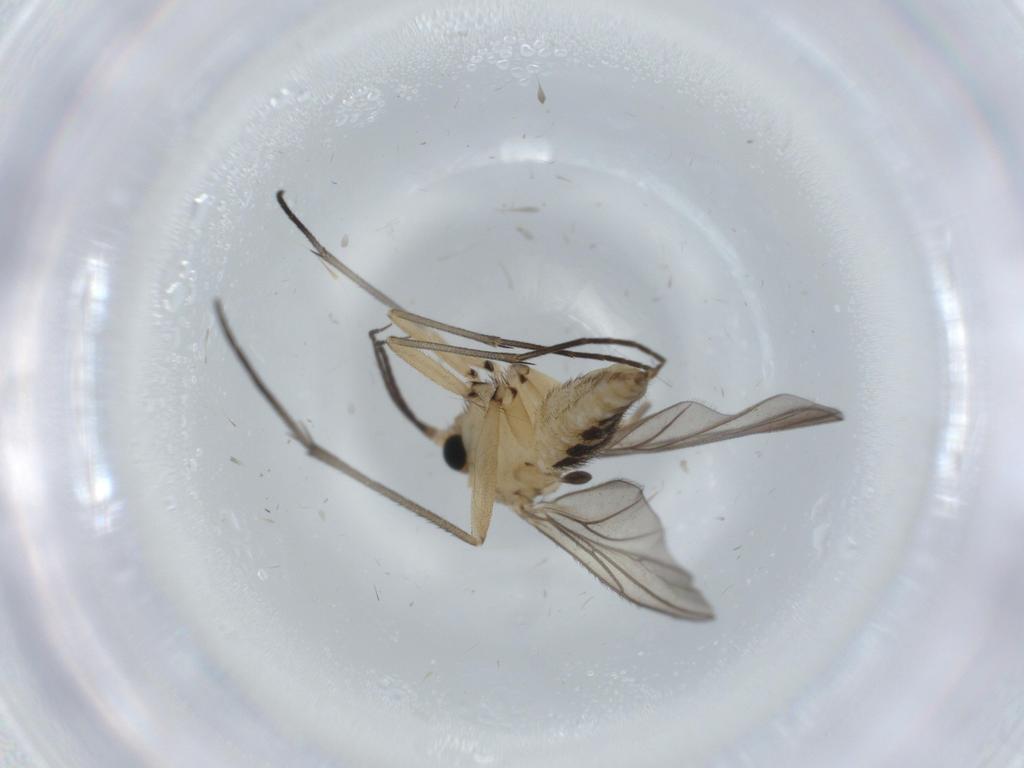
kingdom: Animalia
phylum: Arthropoda
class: Insecta
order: Diptera
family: Sciaridae
